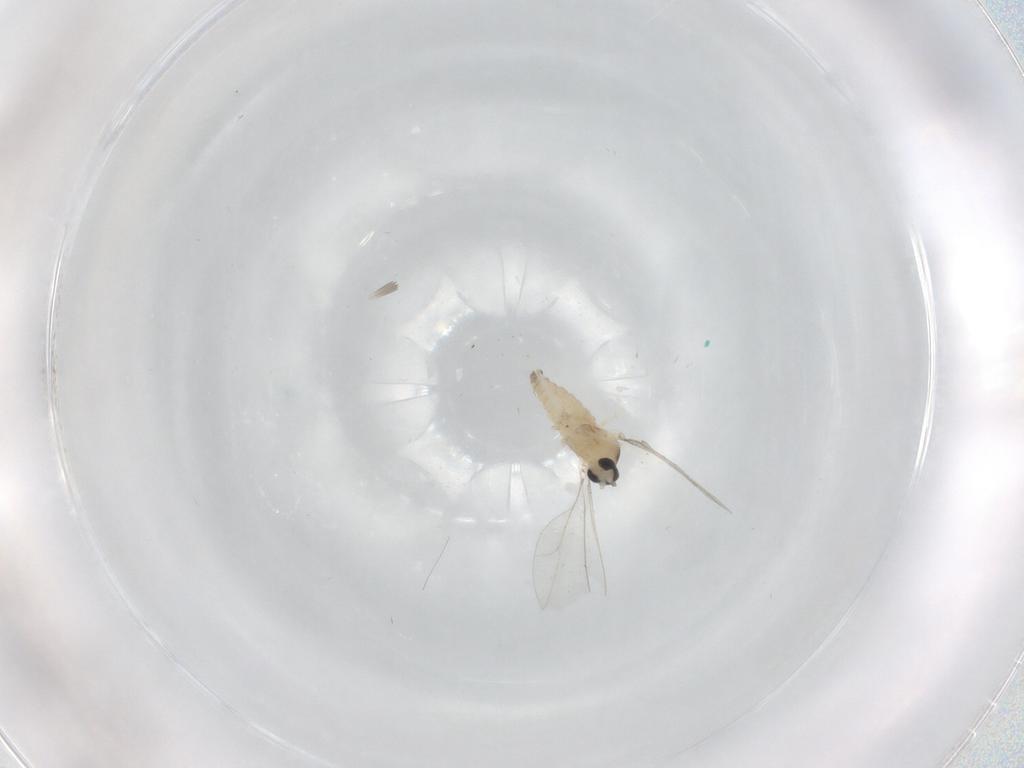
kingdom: Animalia
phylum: Arthropoda
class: Insecta
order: Diptera
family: Cecidomyiidae
